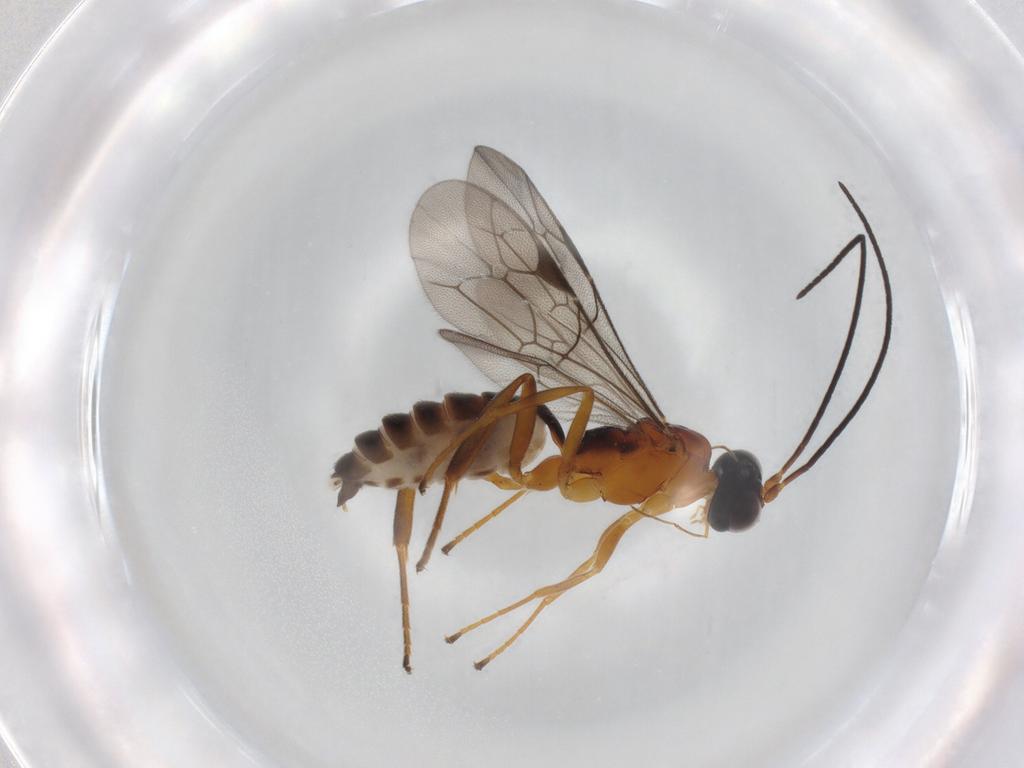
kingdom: Animalia
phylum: Arthropoda
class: Insecta
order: Hymenoptera
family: Ichneumonidae
